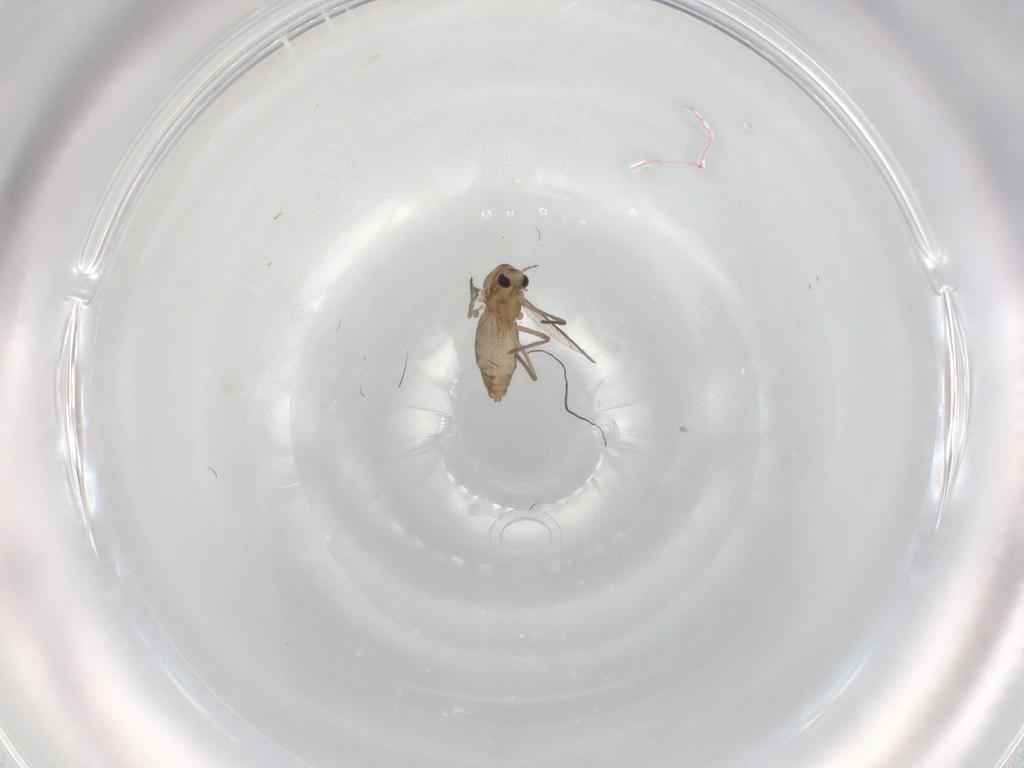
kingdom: Animalia
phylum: Arthropoda
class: Insecta
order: Diptera
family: Chironomidae
